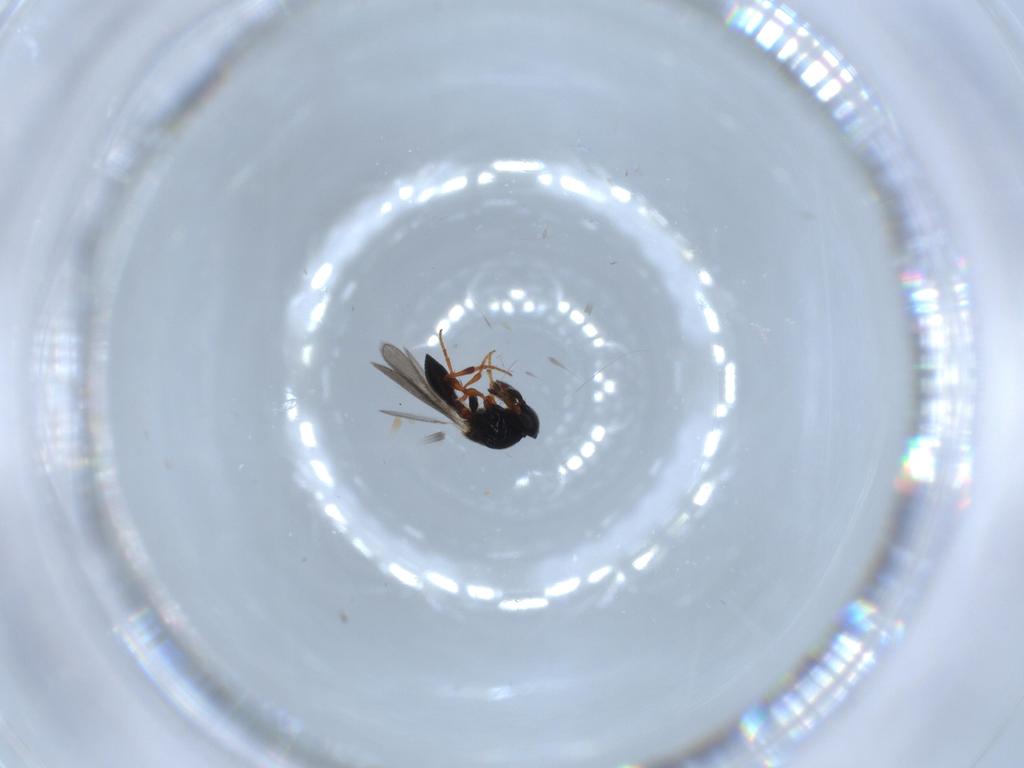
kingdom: Animalia
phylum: Arthropoda
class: Insecta
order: Hymenoptera
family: Platygastridae
